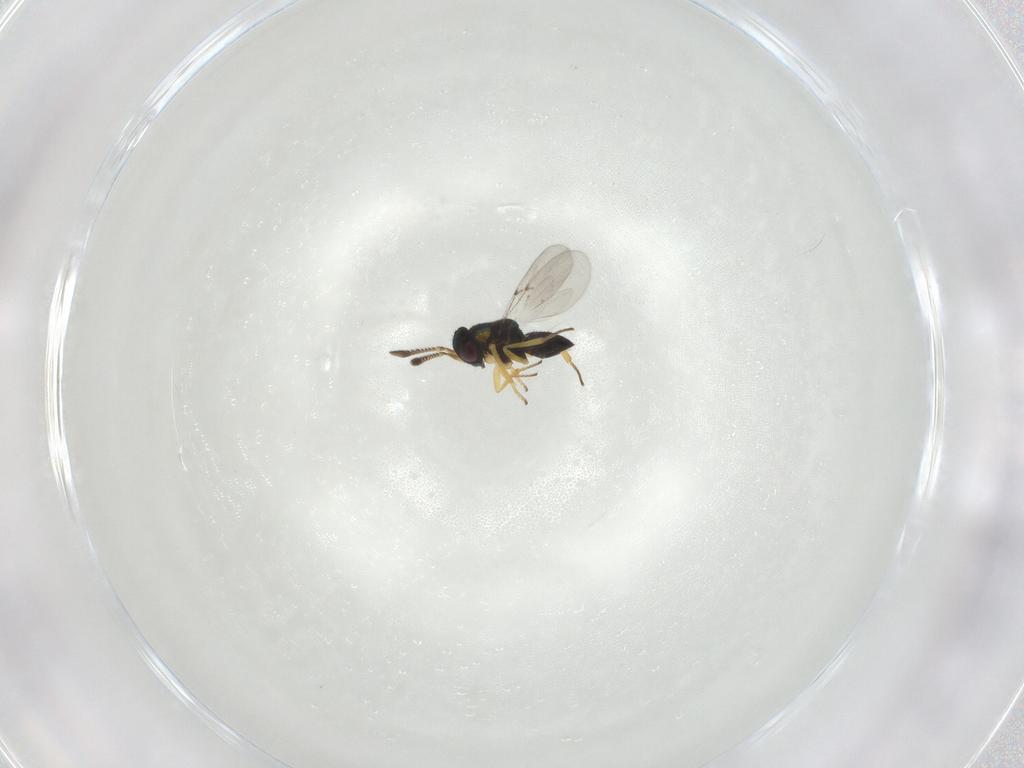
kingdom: Animalia
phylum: Arthropoda
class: Insecta
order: Hymenoptera
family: Encyrtidae
